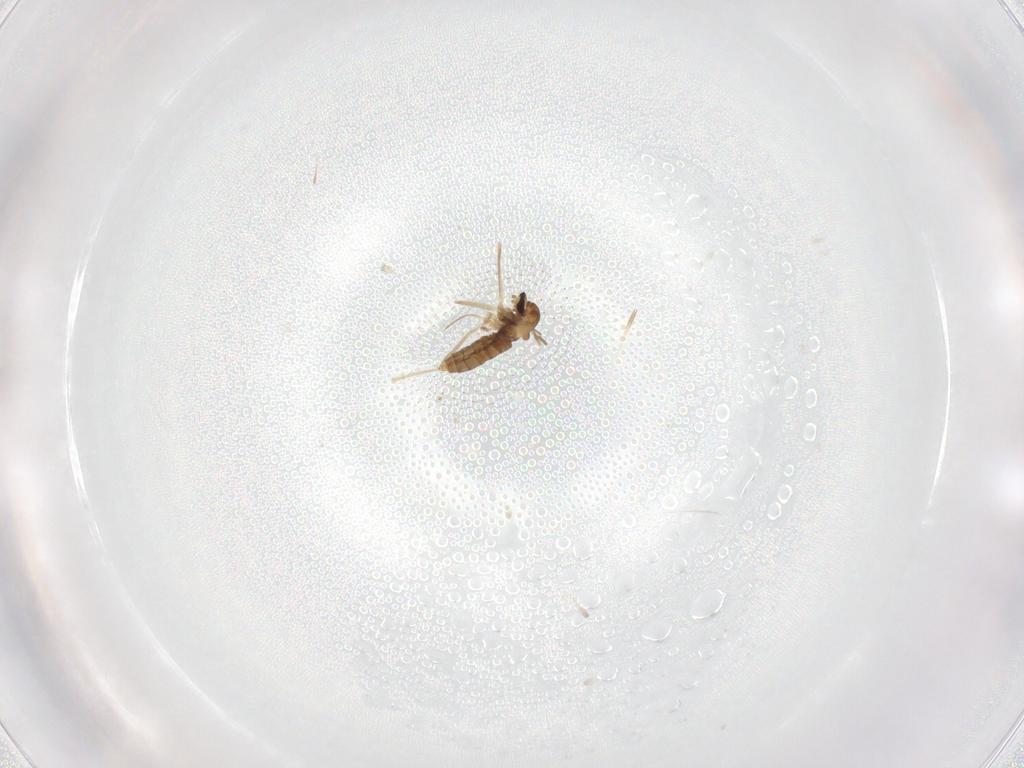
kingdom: Animalia
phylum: Arthropoda
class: Insecta
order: Diptera
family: Cecidomyiidae
